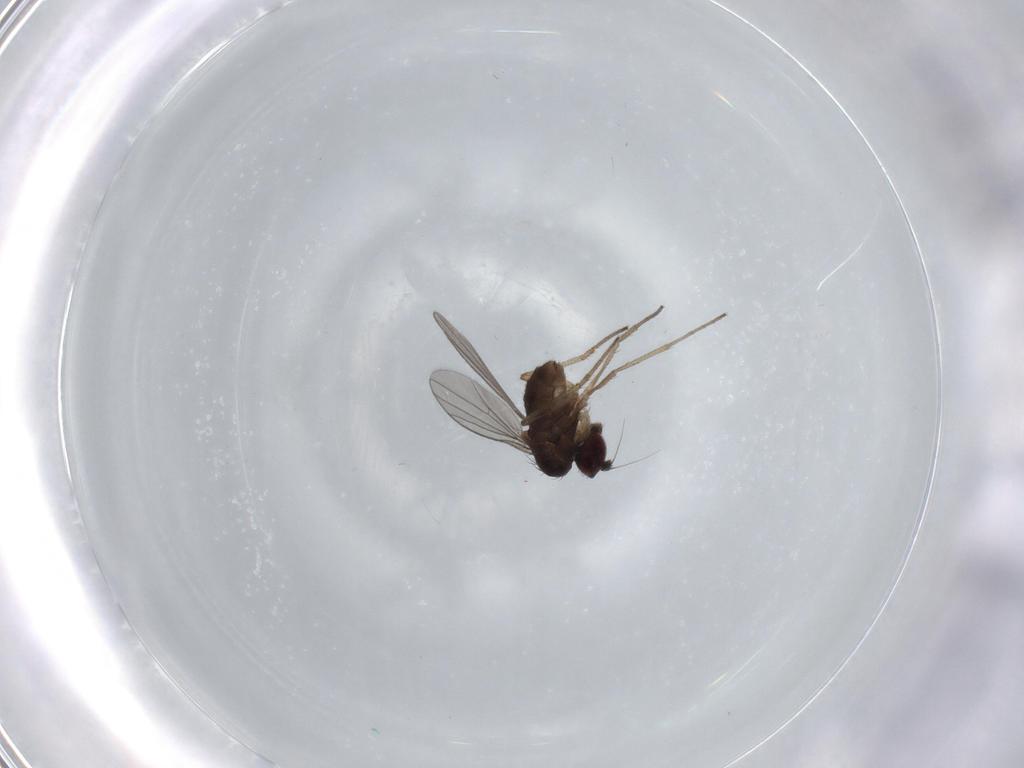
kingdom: Animalia
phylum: Arthropoda
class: Insecta
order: Diptera
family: Dolichopodidae
